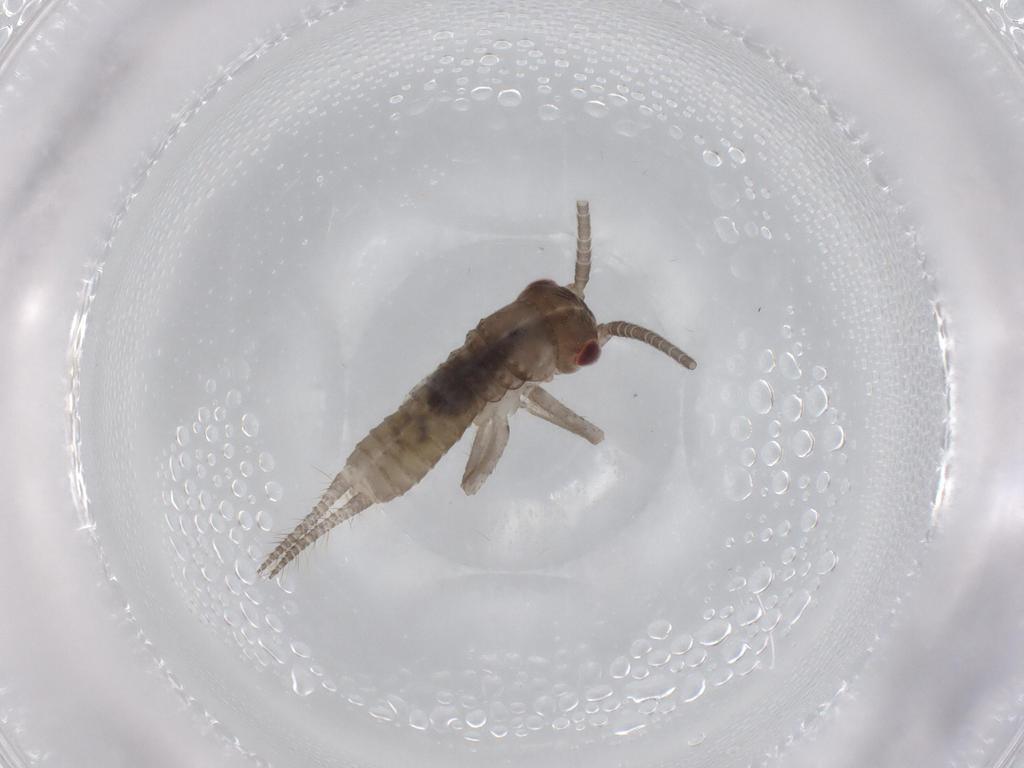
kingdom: Animalia
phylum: Arthropoda
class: Insecta
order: Orthoptera
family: Gryllidae
